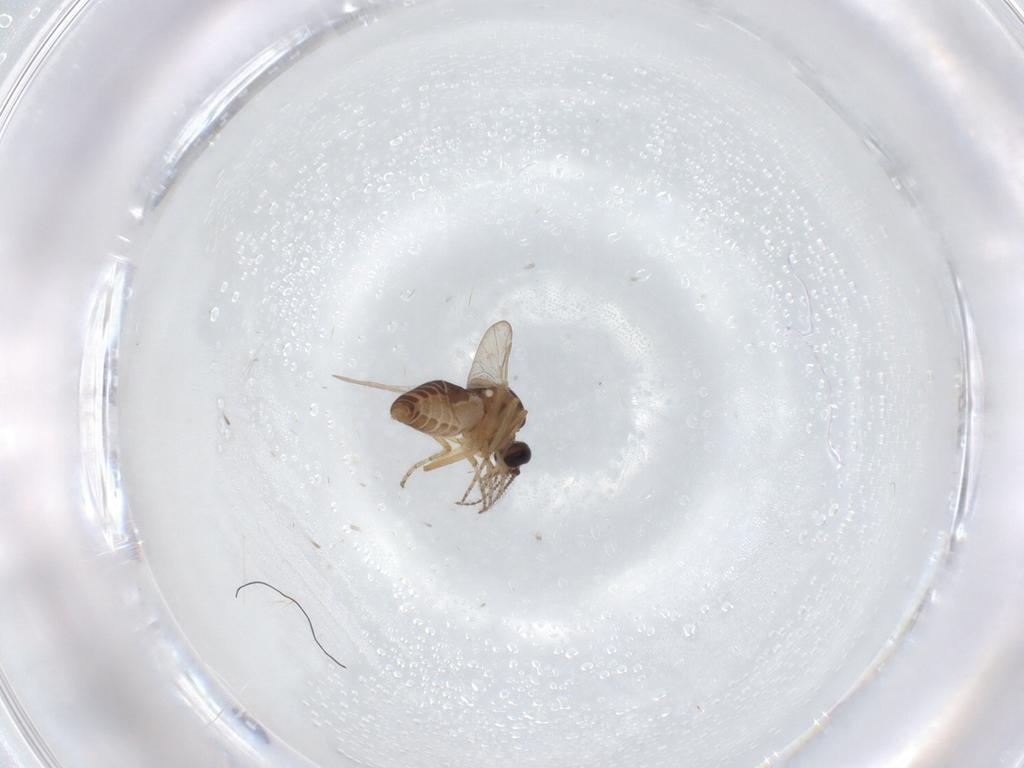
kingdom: Animalia
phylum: Arthropoda
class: Insecta
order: Diptera
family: Ceratopogonidae
